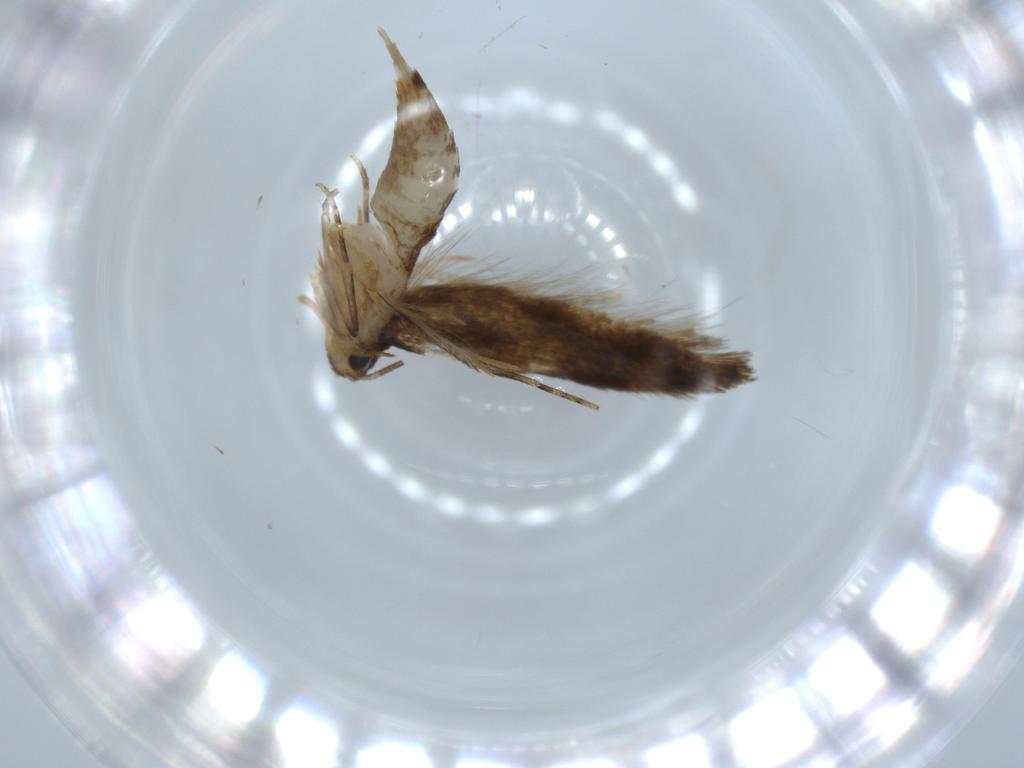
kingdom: Animalia
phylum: Arthropoda
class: Insecta
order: Lepidoptera
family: Tineidae
